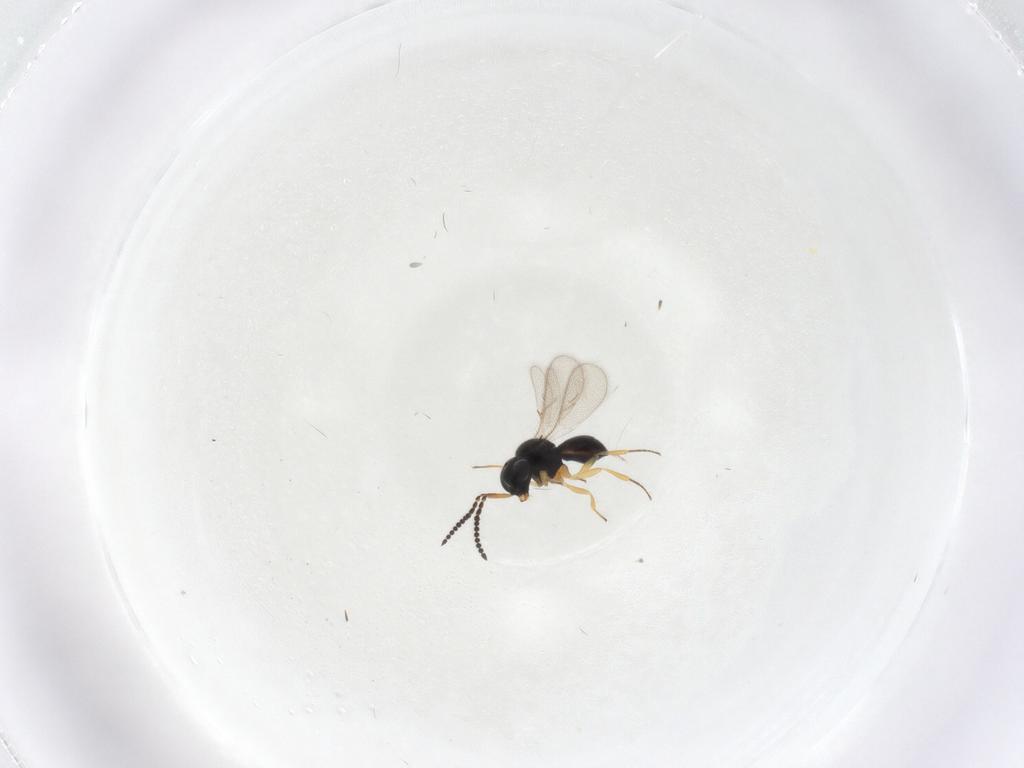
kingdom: Animalia
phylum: Arthropoda
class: Insecta
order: Hymenoptera
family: Scelionidae
